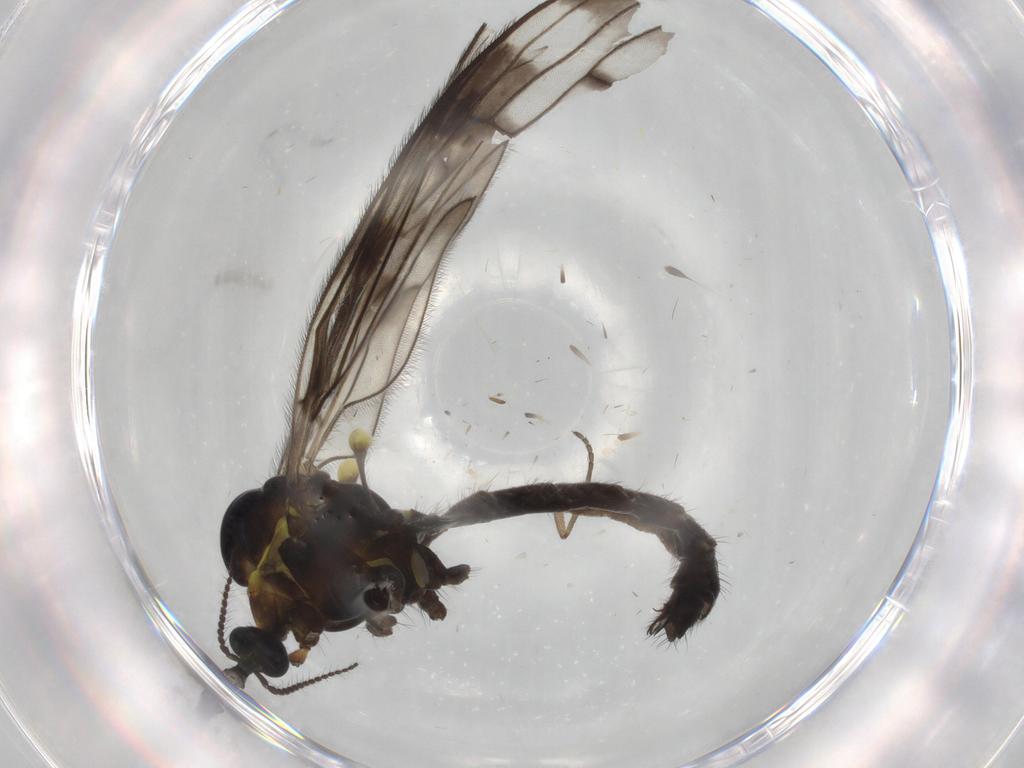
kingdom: Animalia
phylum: Arthropoda
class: Insecta
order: Diptera
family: Limoniidae
